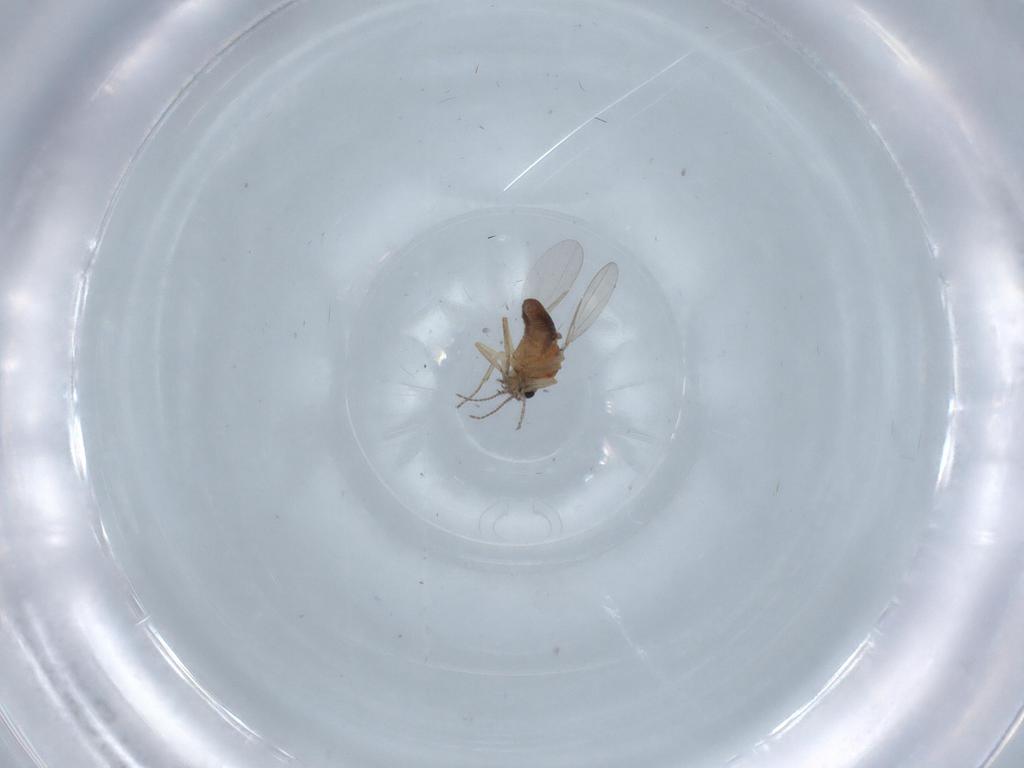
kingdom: Animalia
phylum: Arthropoda
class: Insecta
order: Diptera
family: Ceratopogonidae
